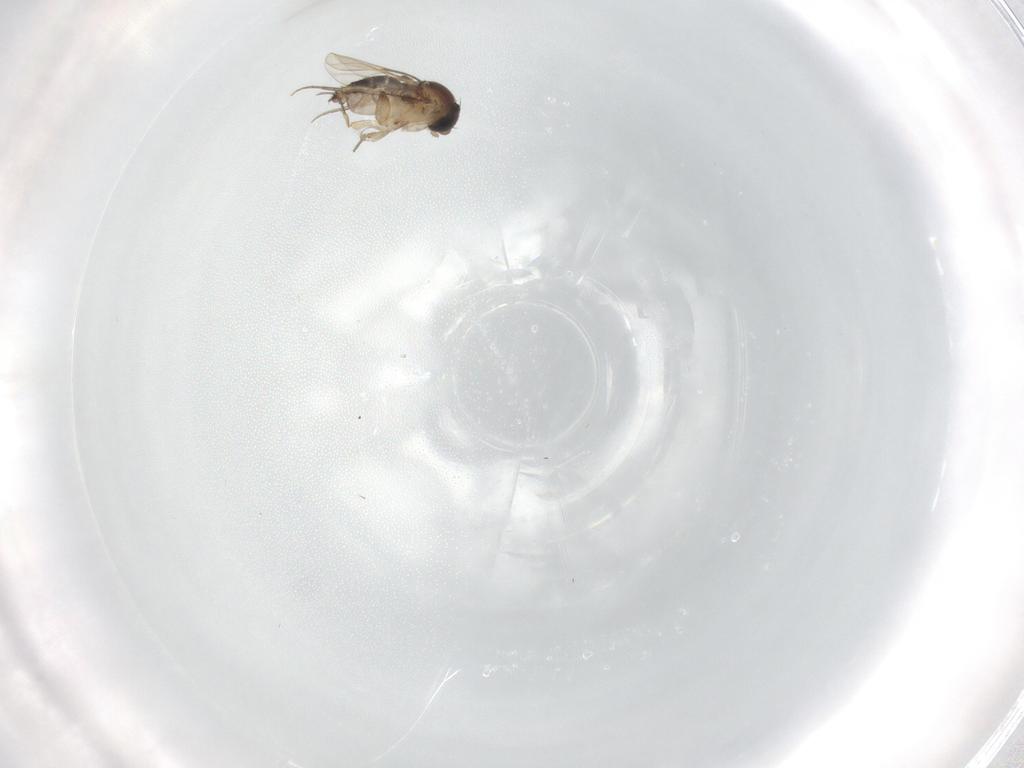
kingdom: Animalia
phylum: Arthropoda
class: Insecta
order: Diptera
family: Phoridae
